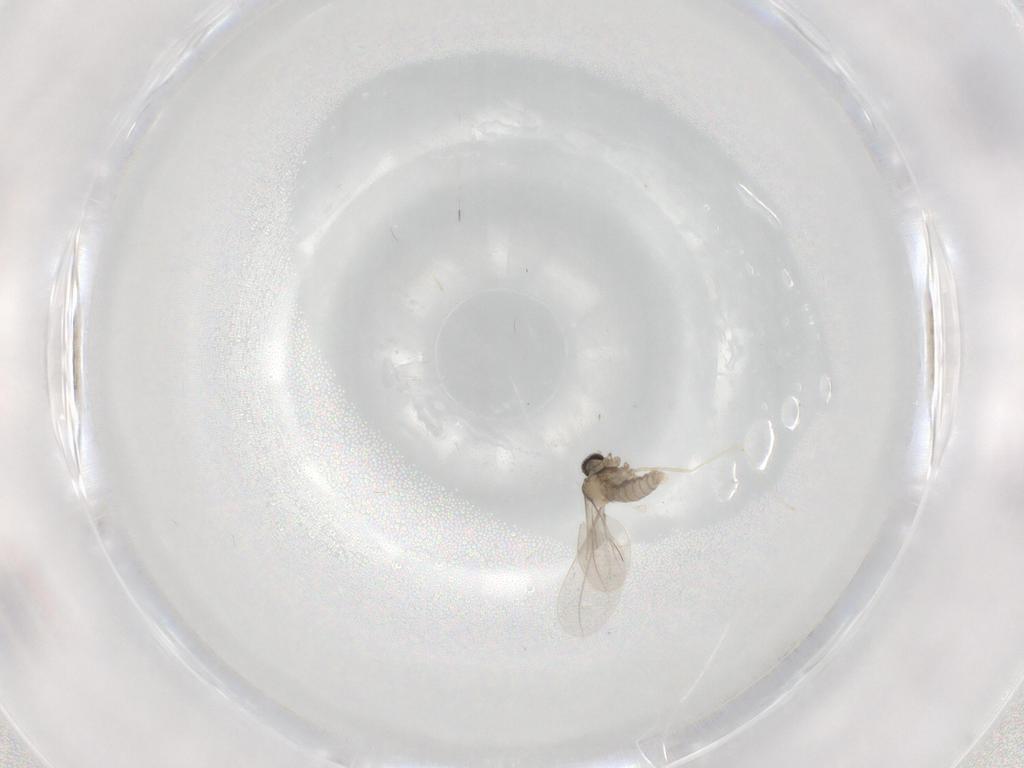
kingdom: Animalia
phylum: Arthropoda
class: Insecta
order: Diptera
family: Cecidomyiidae
